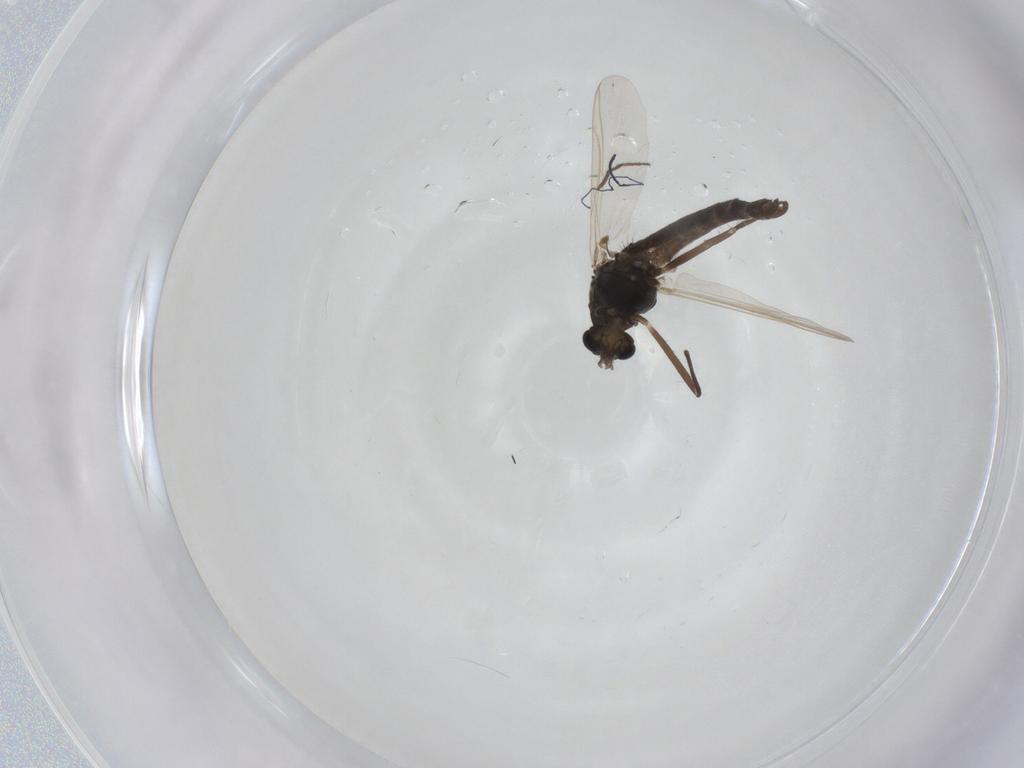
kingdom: Animalia
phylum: Arthropoda
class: Insecta
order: Diptera
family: Chironomidae
